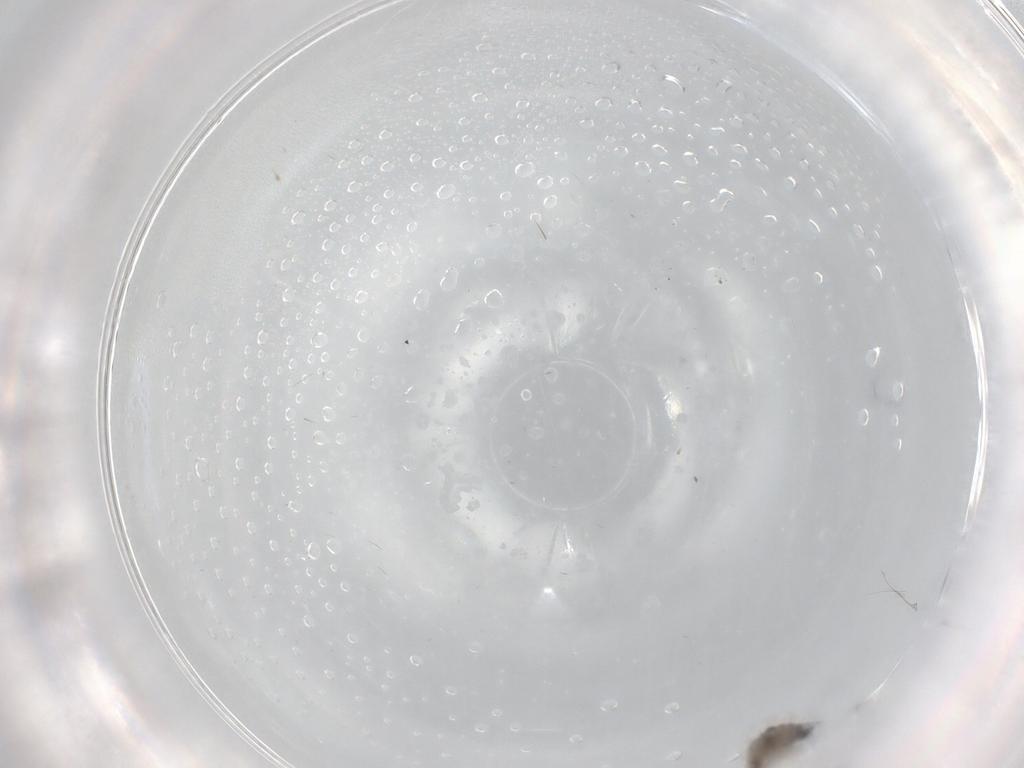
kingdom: Animalia
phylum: Arthropoda
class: Insecta
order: Diptera
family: Cecidomyiidae
